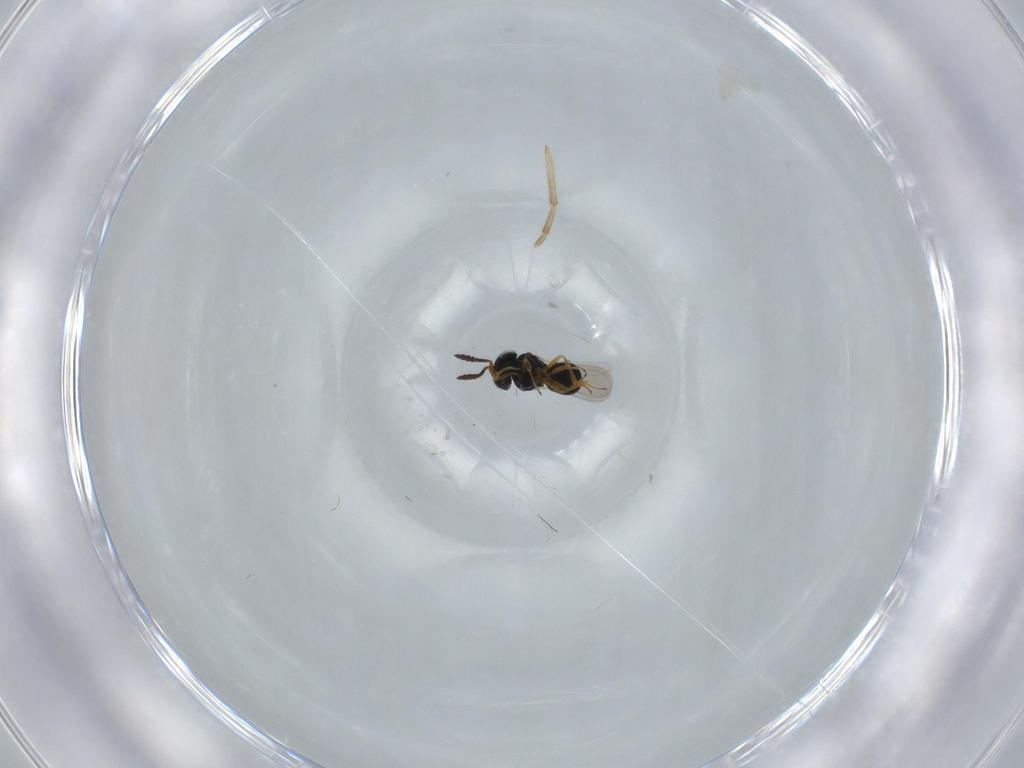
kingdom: Animalia
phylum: Arthropoda
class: Insecta
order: Hymenoptera
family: Scelionidae
